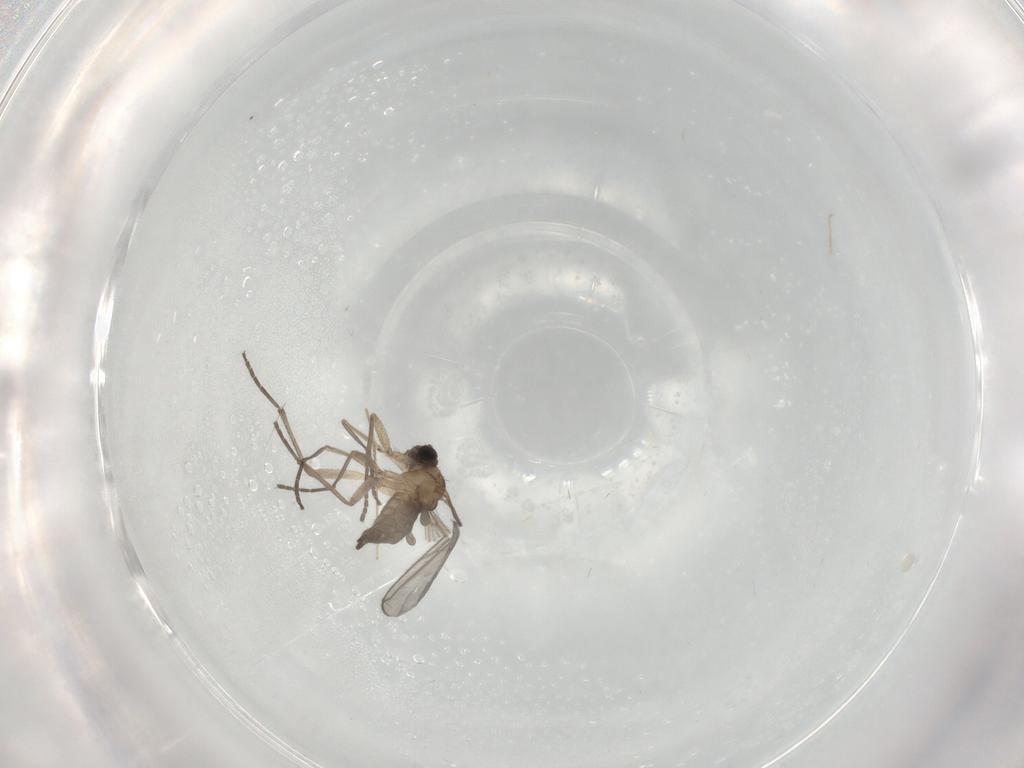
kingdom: Animalia
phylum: Arthropoda
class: Insecta
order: Diptera
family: Chironomidae
